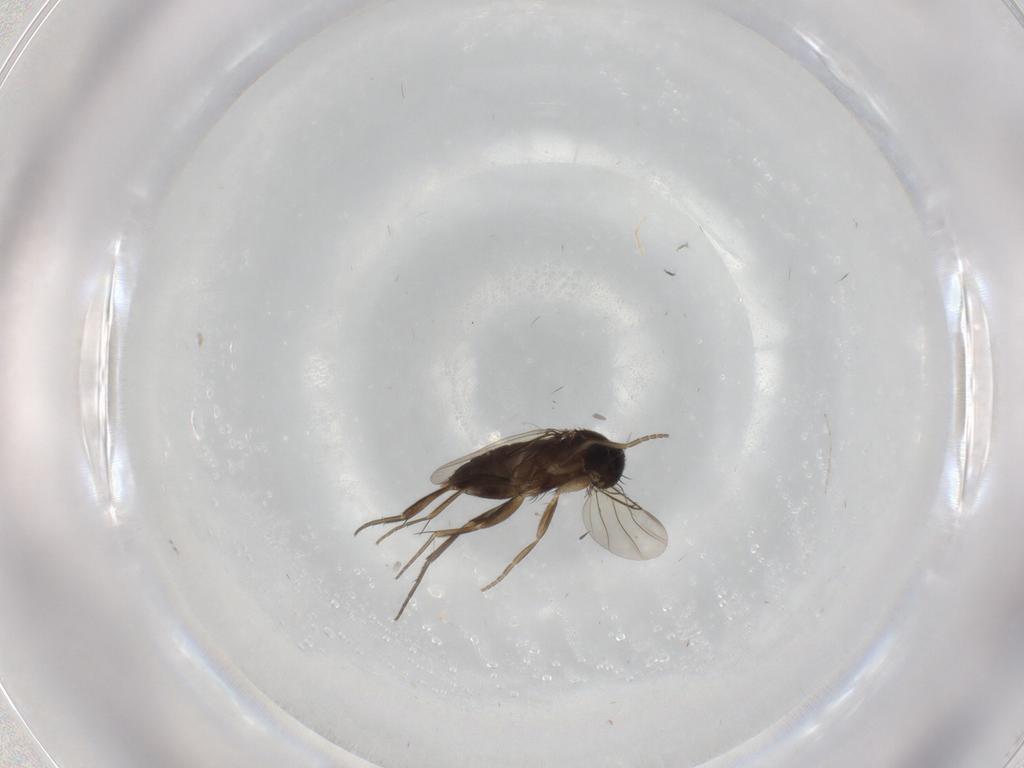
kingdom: Animalia
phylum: Arthropoda
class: Insecta
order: Diptera
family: Phoridae
